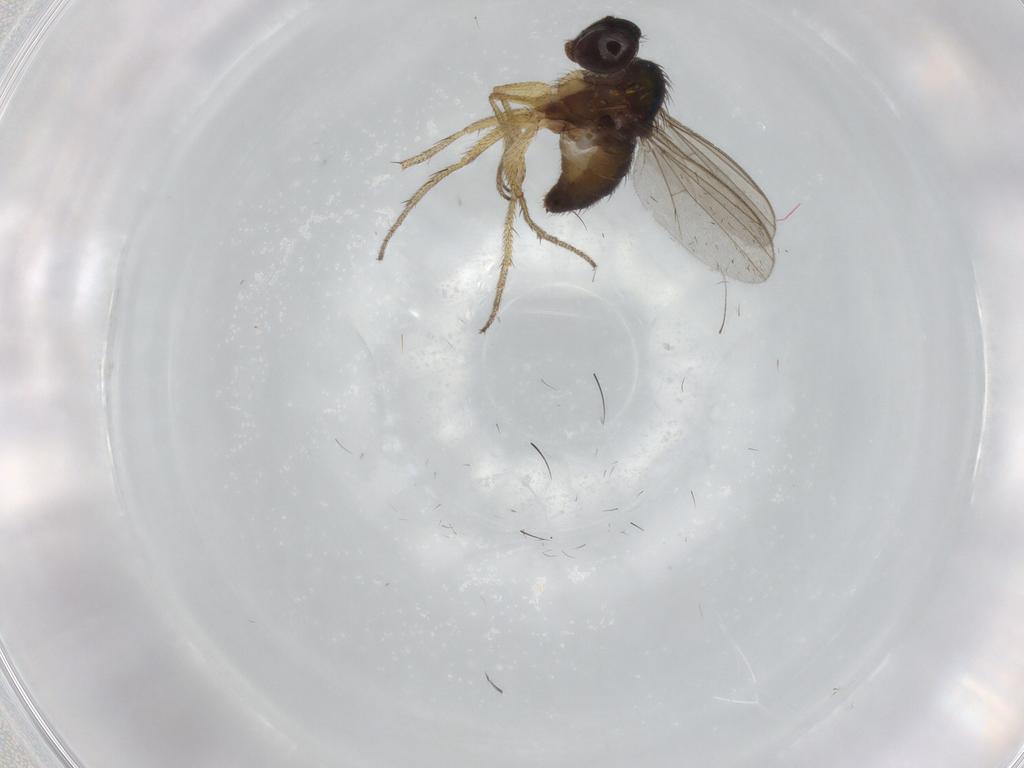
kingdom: Animalia
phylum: Arthropoda
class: Insecta
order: Diptera
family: Dolichopodidae
